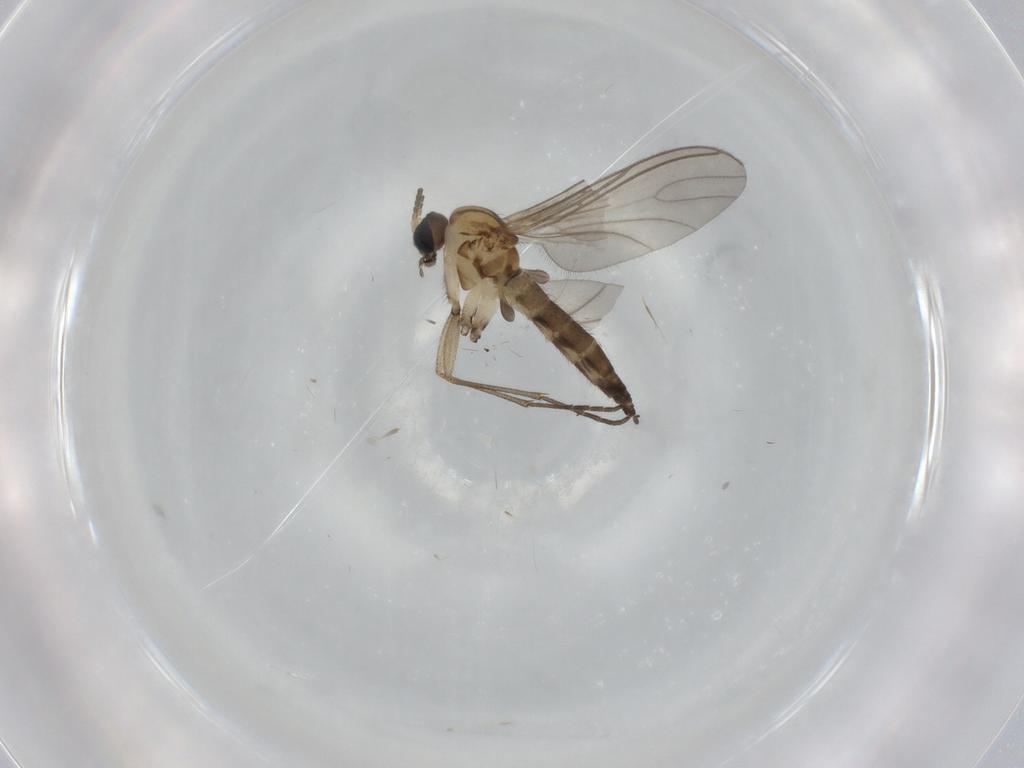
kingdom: Animalia
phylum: Arthropoda
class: Insecta
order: Diptera
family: Sciaridae
